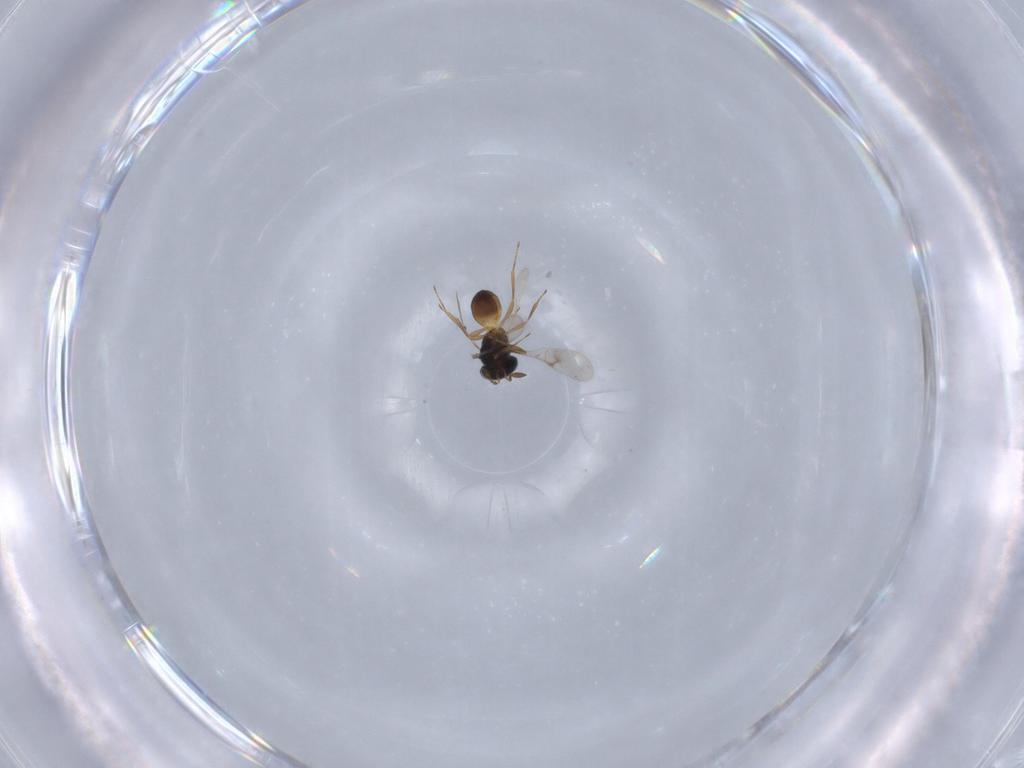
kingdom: Animalia
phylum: Arthropoda
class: Insecta
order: Hymenoptera
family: Scelionidae
